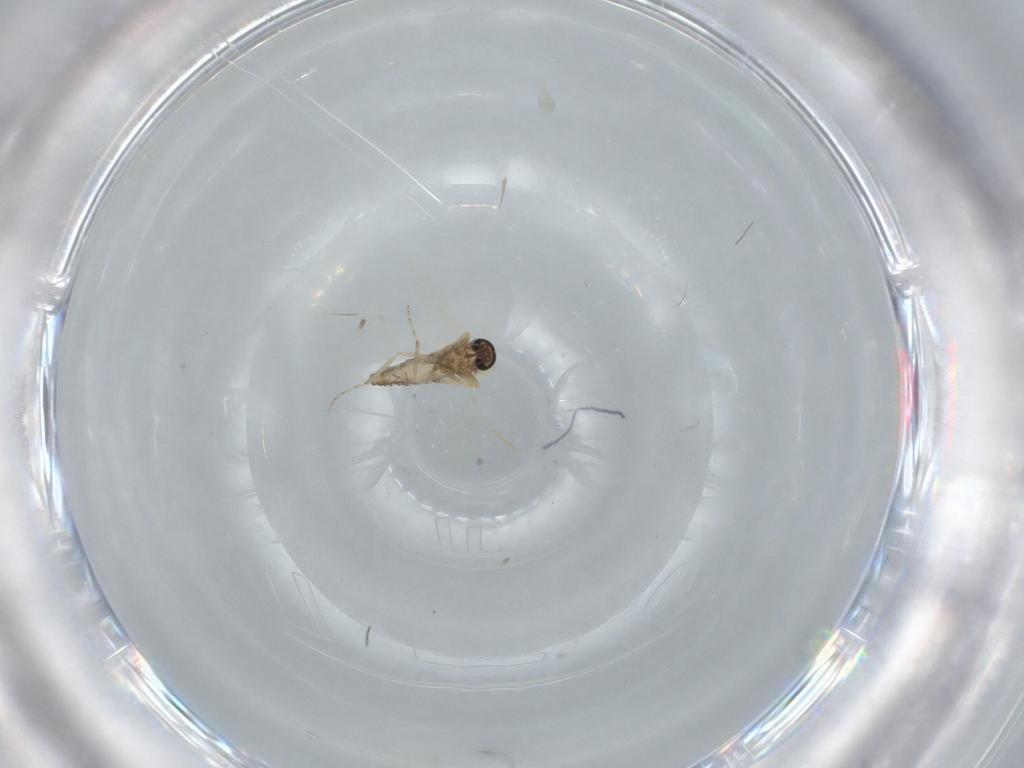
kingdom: Animalia
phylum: Arthropoda
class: Insecta
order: Diptera
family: Ceratopogonidae
